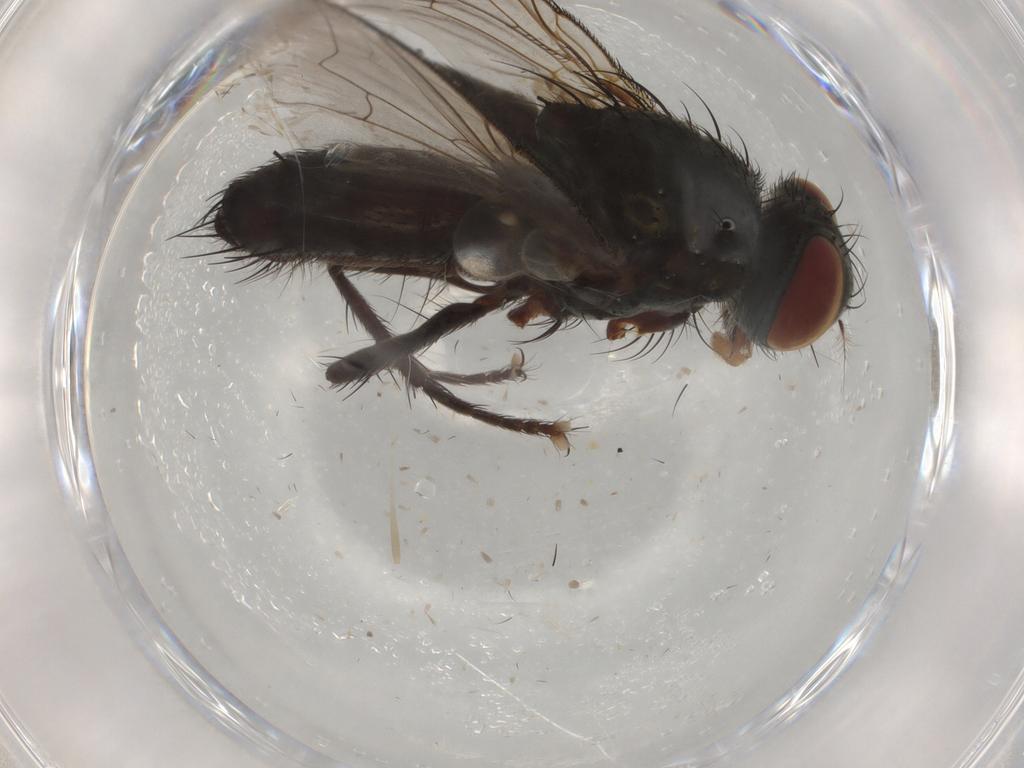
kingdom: Animalia
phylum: Arthropoda
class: Insecta
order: Diptera
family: Sarcophagidae
